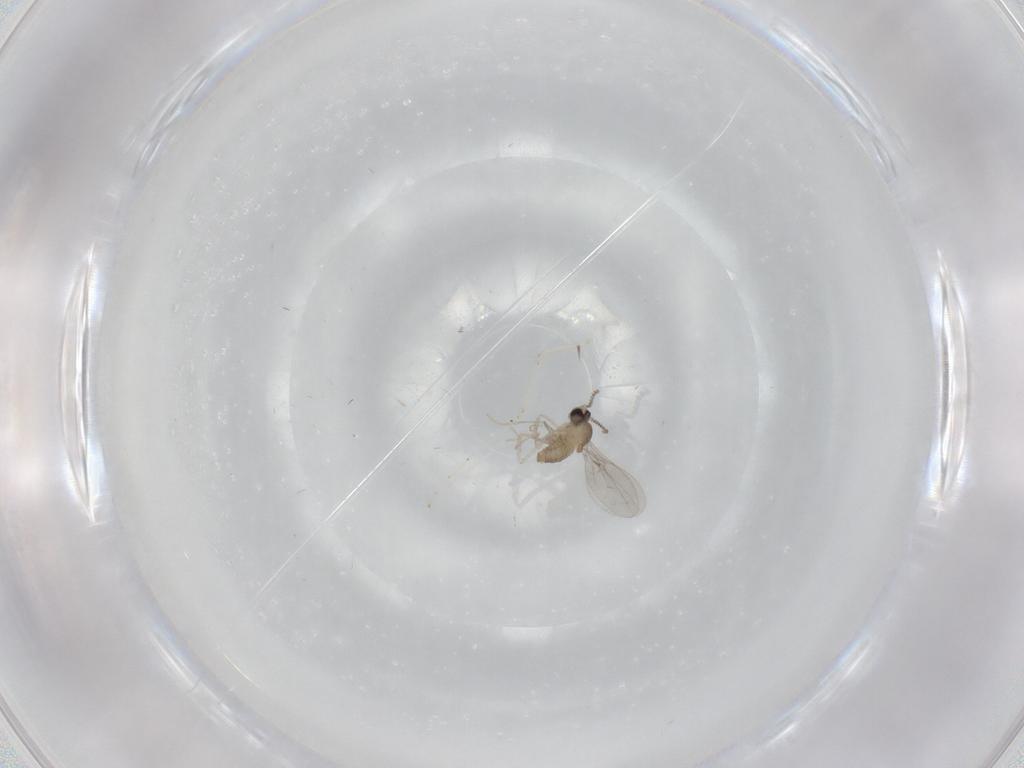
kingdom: Animalia
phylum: Arthropoda
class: Insecta
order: Diptera
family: Cecidomyiidae
